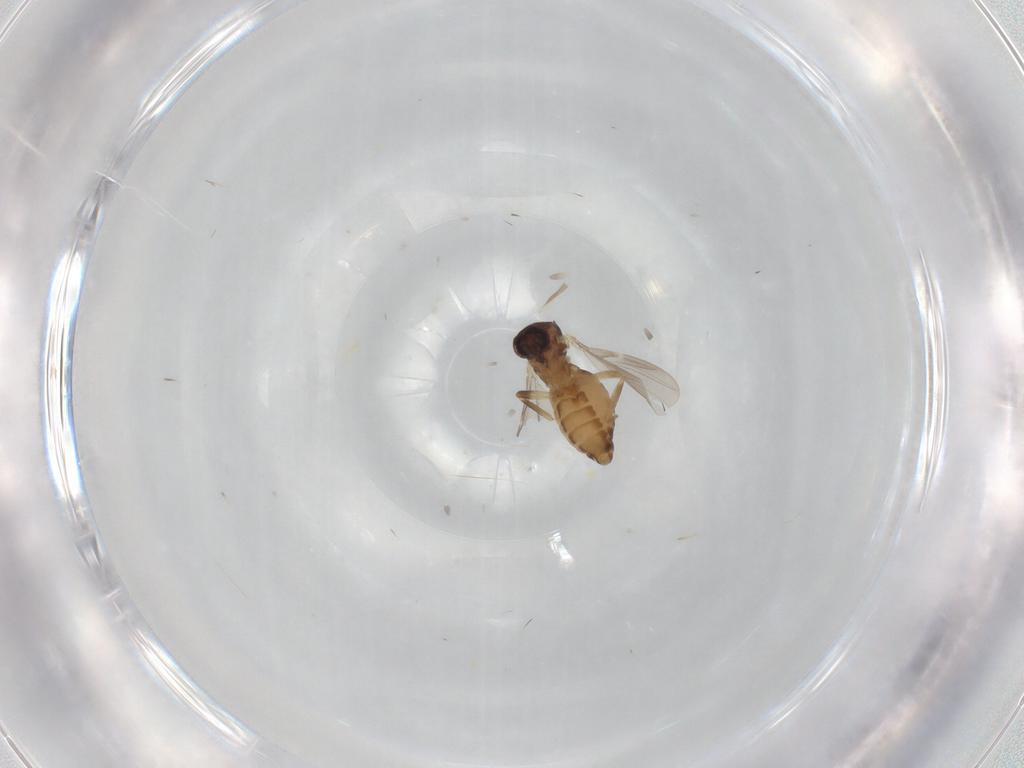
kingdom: Animalia
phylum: Arthropoda
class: Insecta
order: Diptera
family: Ceratopogonidae
